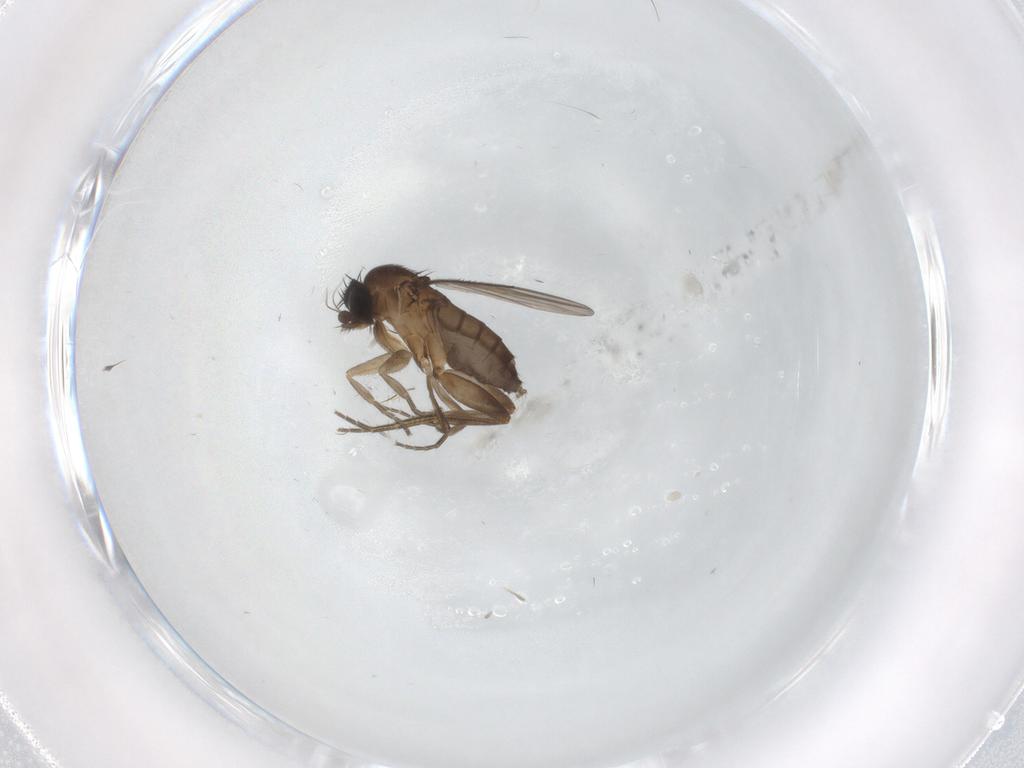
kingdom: Animalia
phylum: Arthropoda
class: Insecta
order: Diptera
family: Phoridae
